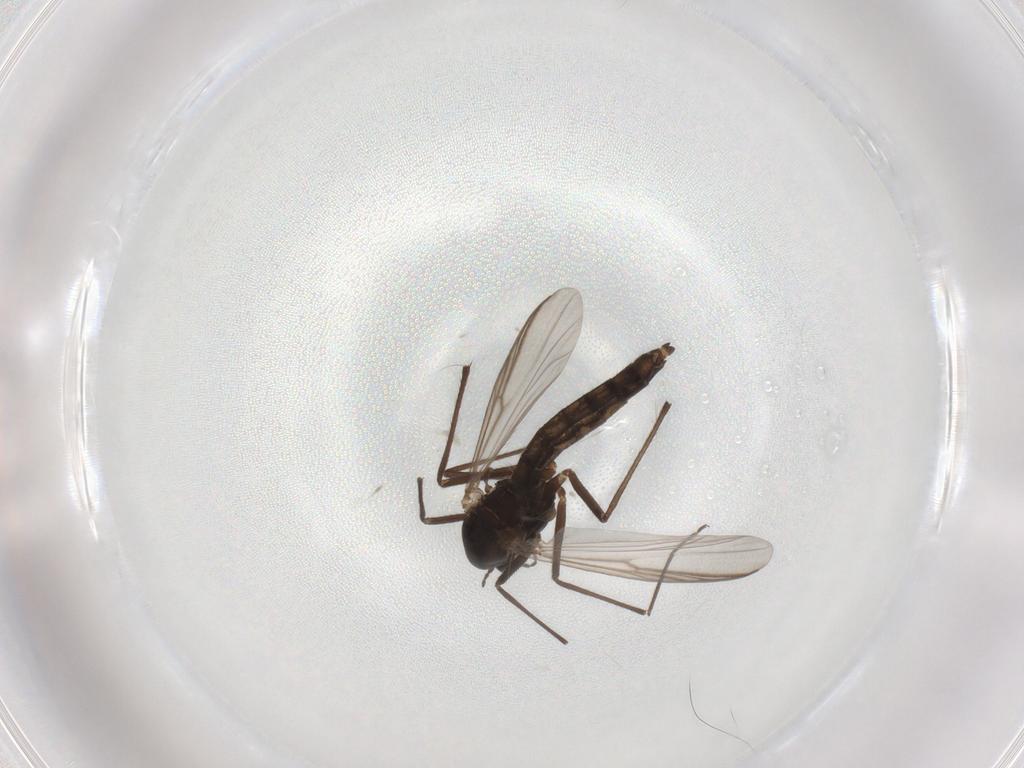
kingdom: Animalia
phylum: Arthropoda
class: Insecta
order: Diptera
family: Chironomidae
